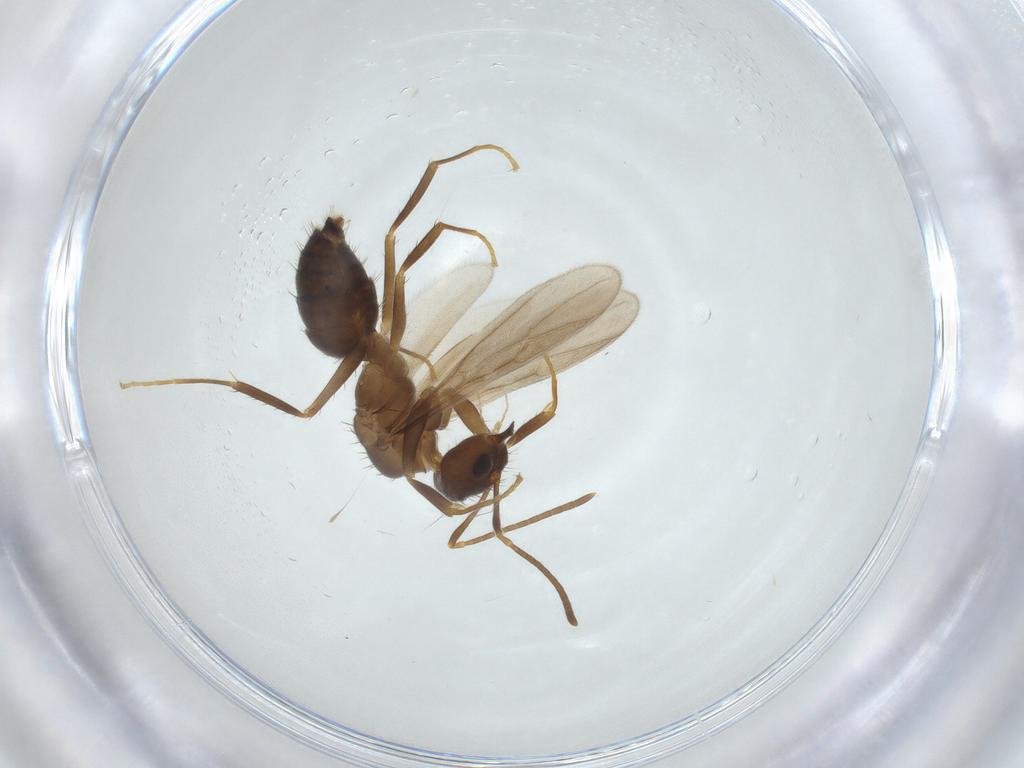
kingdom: Animalia
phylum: Arthropoda
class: Insecta
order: Hymenoptera
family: Formicidae
